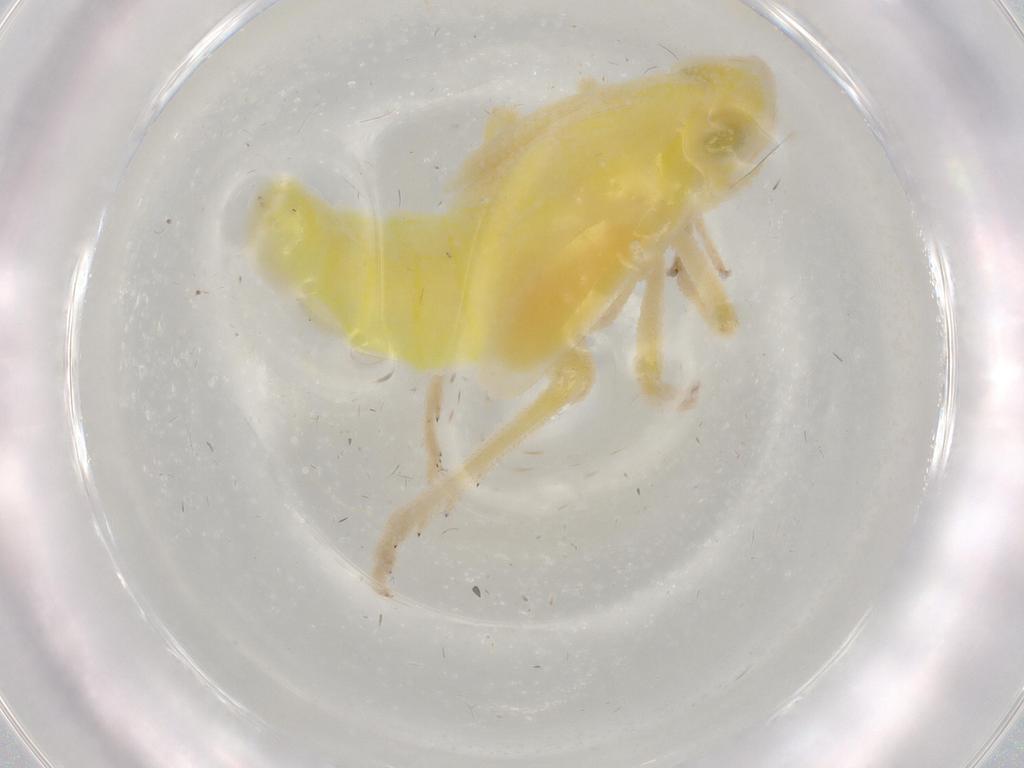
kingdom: Animalia
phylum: Arthropoda
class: Insecta
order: Hemiptera
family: Tropiduchidae
